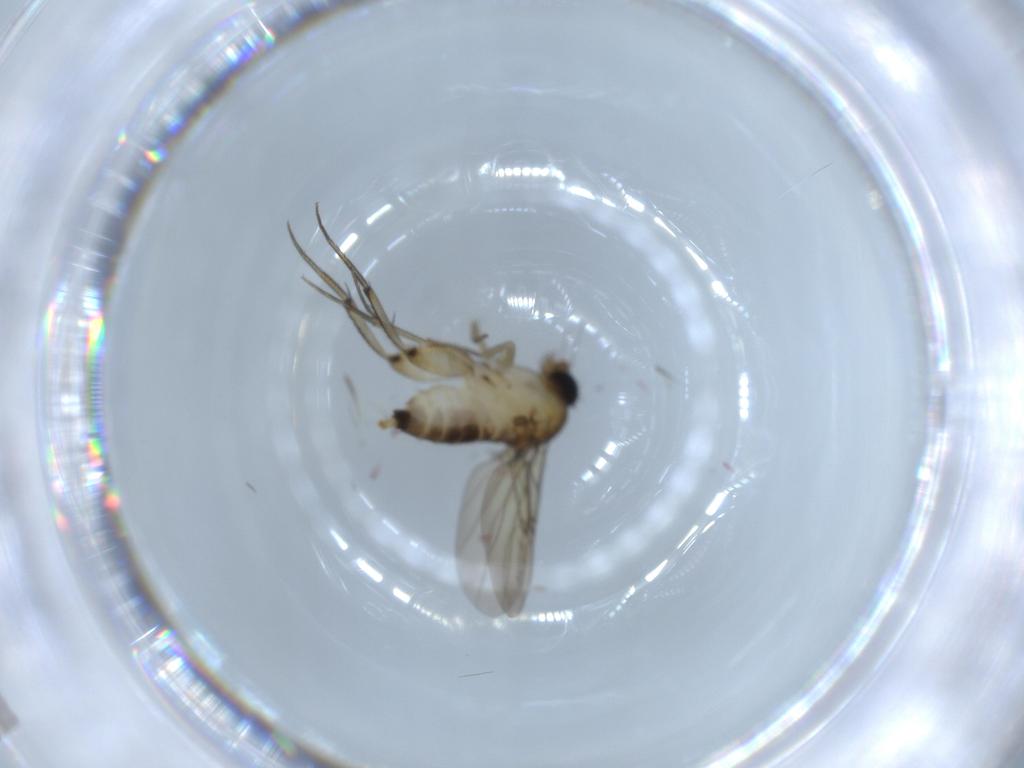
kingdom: Animalia
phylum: Arthropoda
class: Insecta
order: Diptera
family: Phoridae
